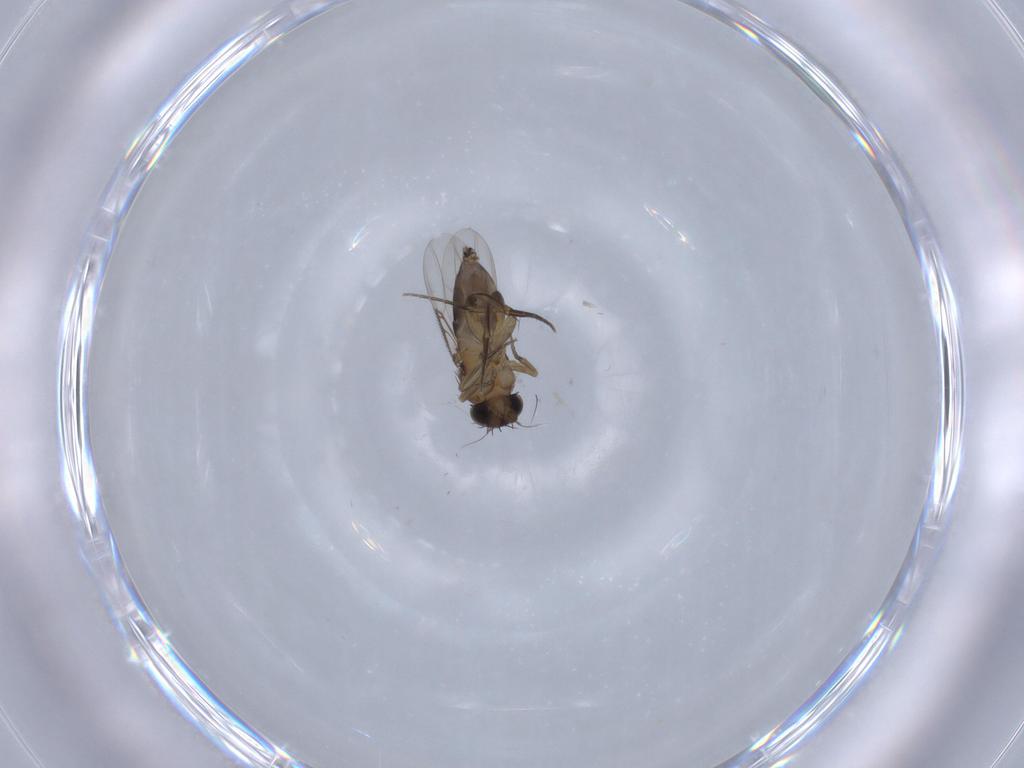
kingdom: Animalia
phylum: Arthropoda
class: Insecta
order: Diptera
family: Phoridae
